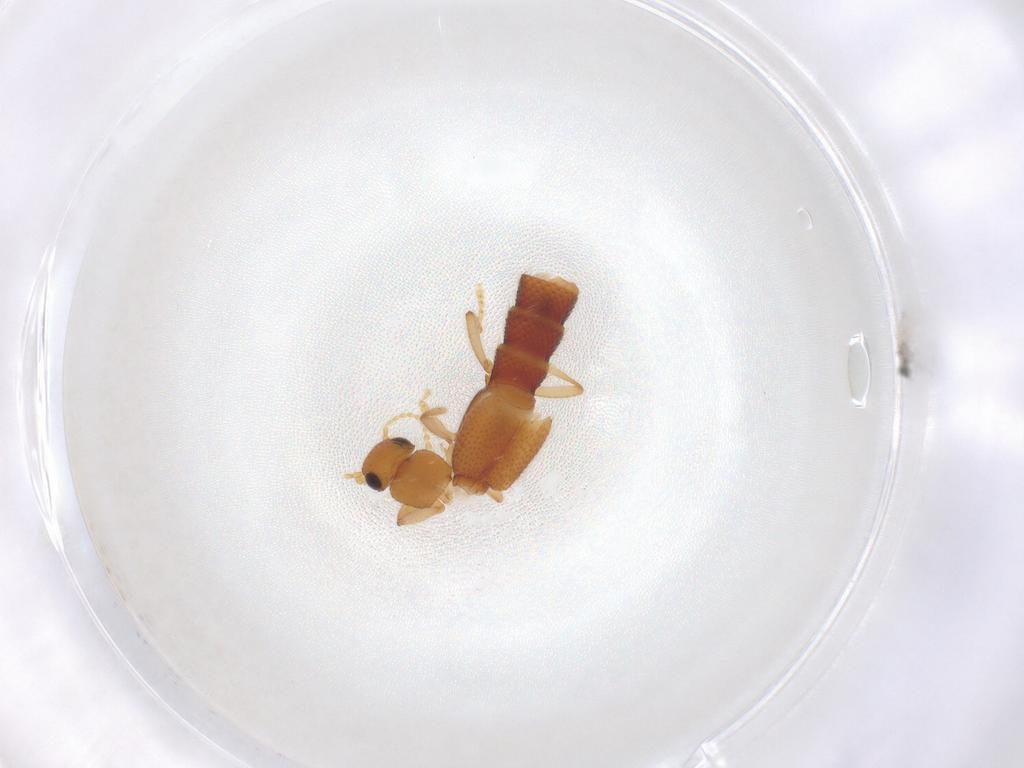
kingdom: Animalia
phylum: Arthropoda
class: Insecta
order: Coleoptera
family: Staphylinidae
